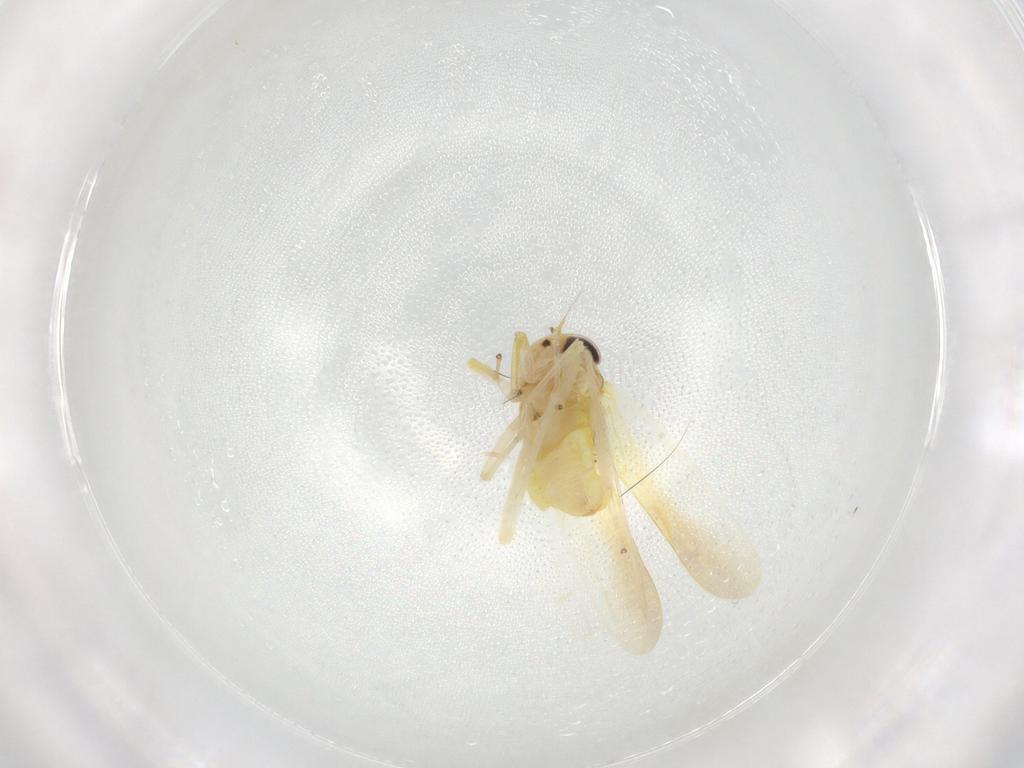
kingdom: Animalia
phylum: Arthropoda
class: Insecta
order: Hemiptera
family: Cicadellidae
